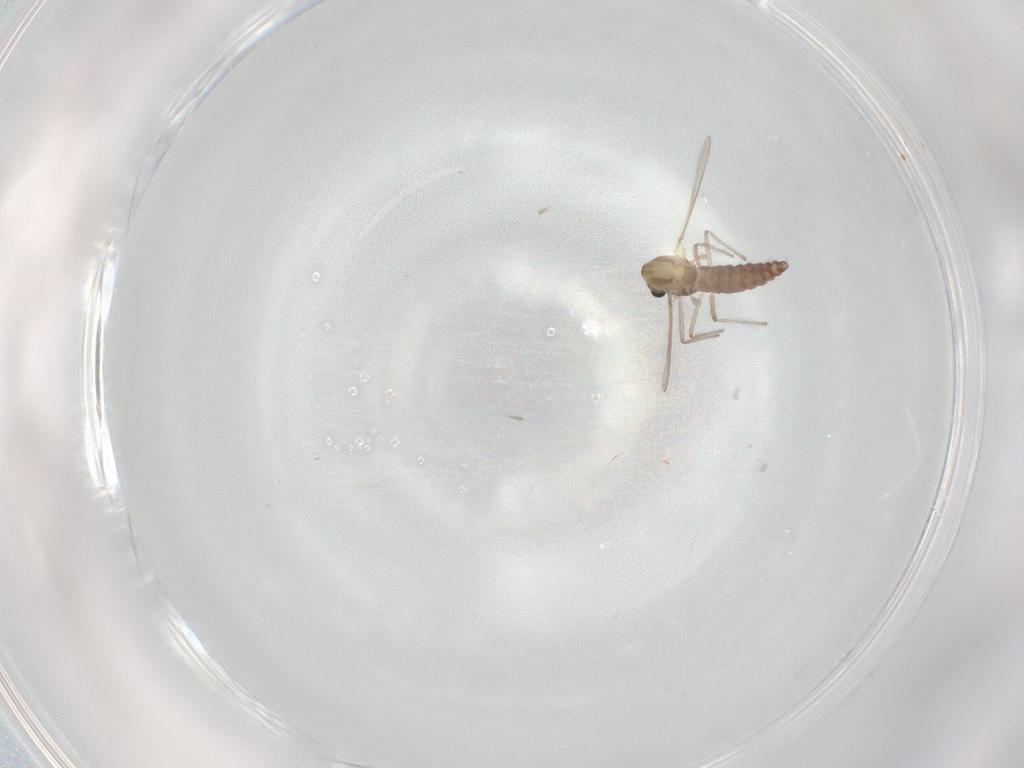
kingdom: Animalia
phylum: Arthropoda
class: Insecta
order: Diptera
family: Chironomidae
